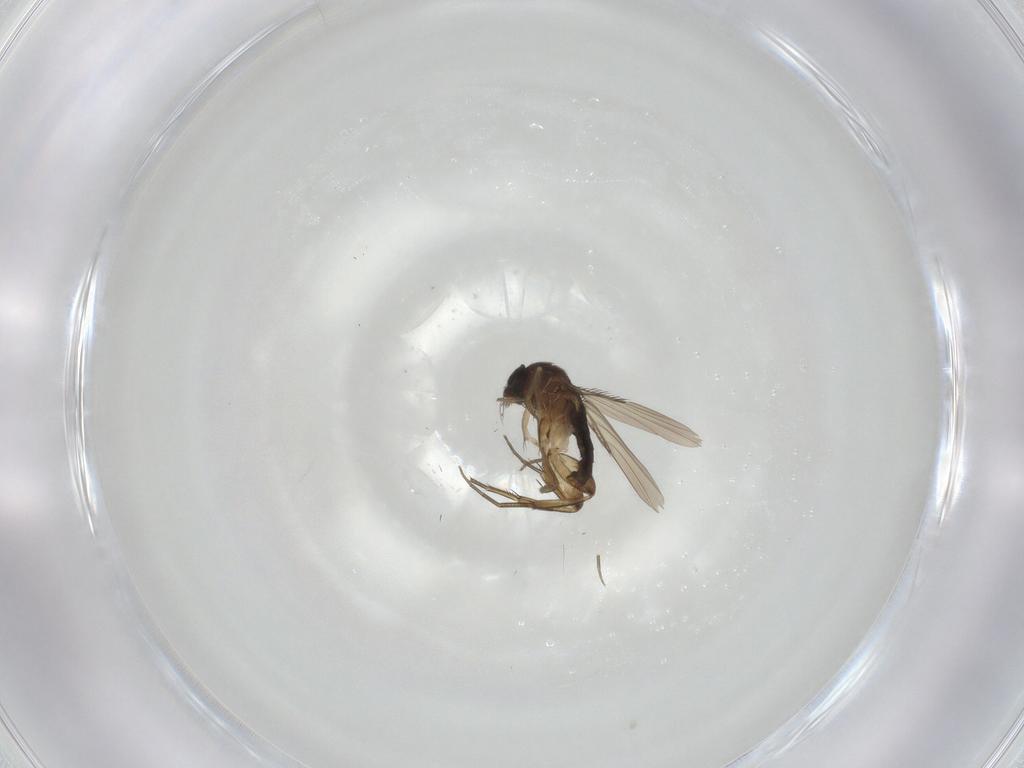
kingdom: Animalia
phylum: Arthropoda
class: Insecta
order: Diptera
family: Phoridae
